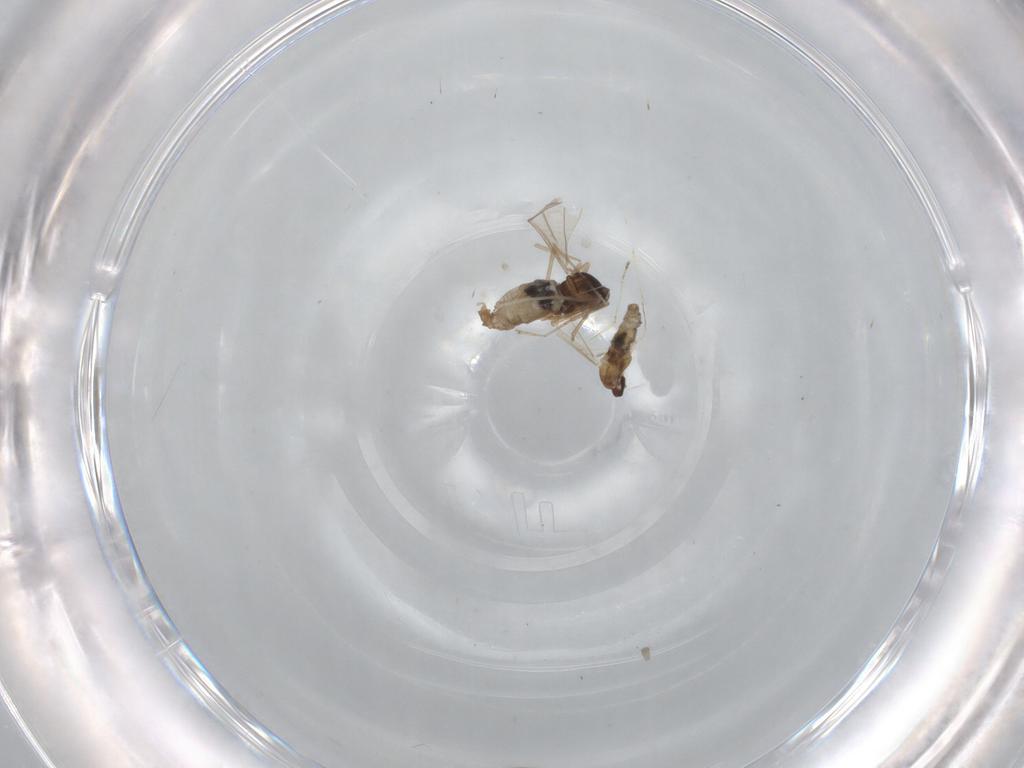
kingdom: Animalia
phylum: Arthropoda
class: Insecta
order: Diptera
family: Cecidomyiidae
